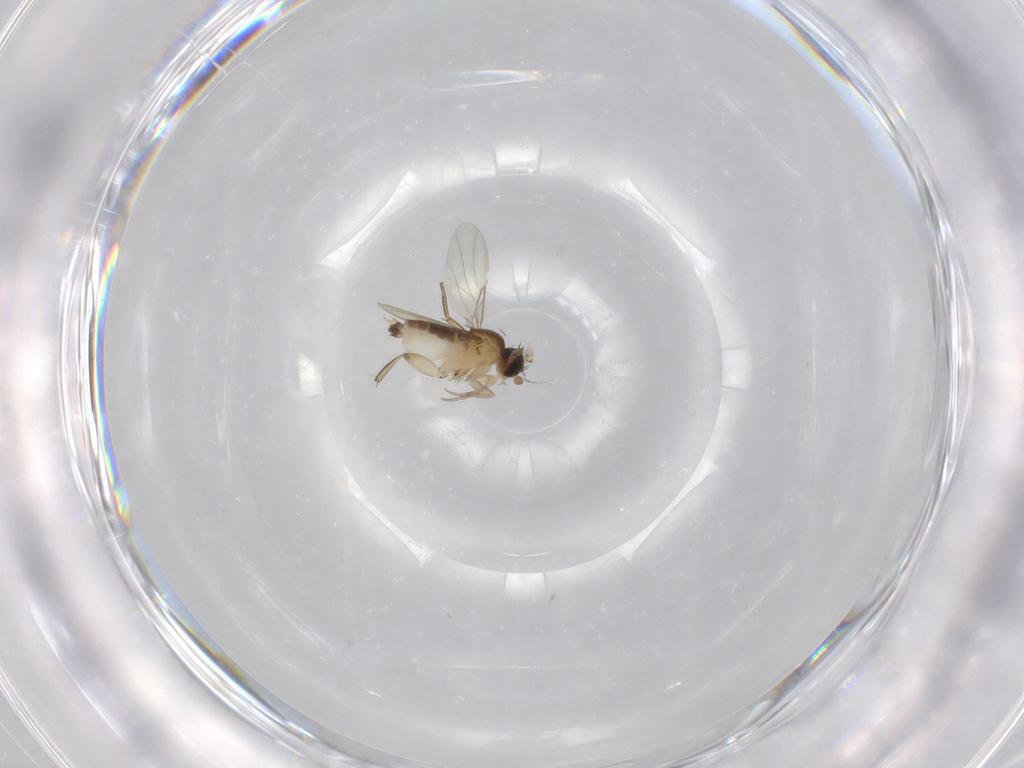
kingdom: Animalia
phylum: Arthropoda
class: Insecta
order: Diptera
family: Phoridae
